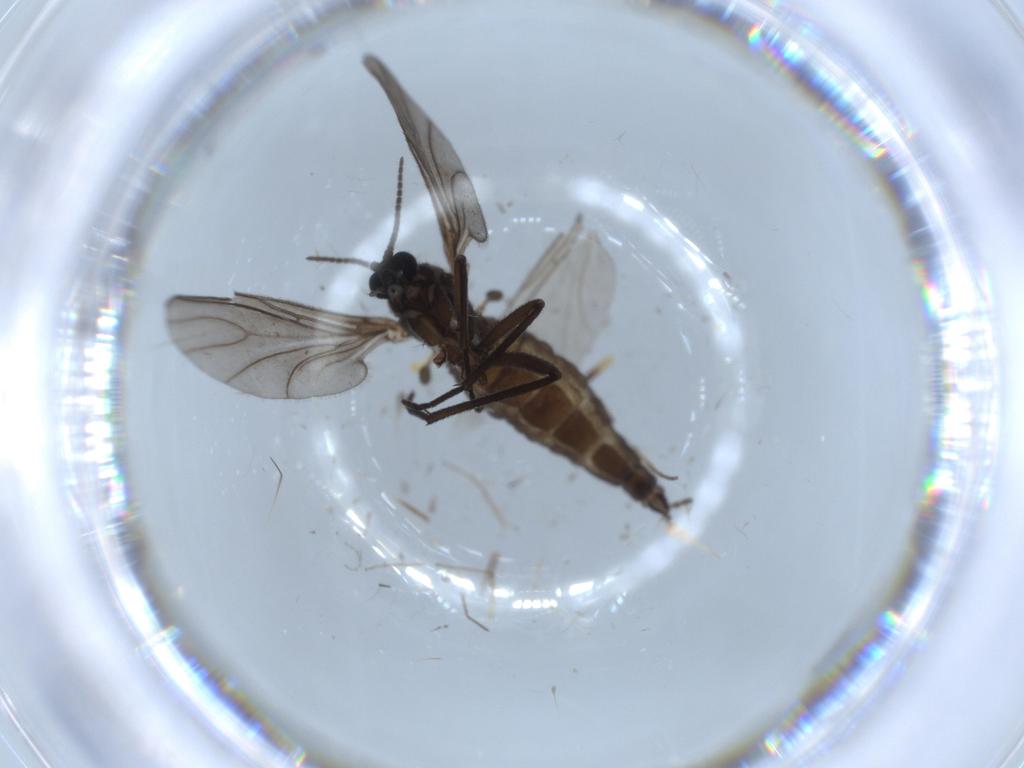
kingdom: Animalia
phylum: Arthropoda
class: Insecta
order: Diptera
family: Sciaridae
